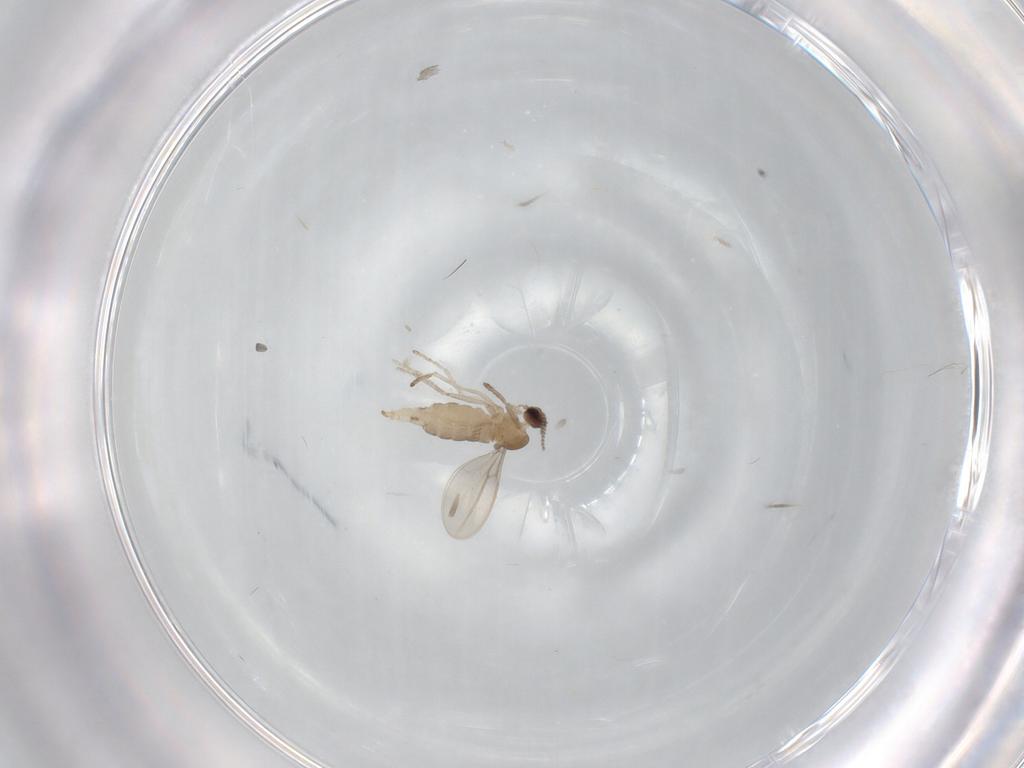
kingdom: Animalia
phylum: Arthropoda
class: Insecta
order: Diptera
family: Cecidomyiidae
